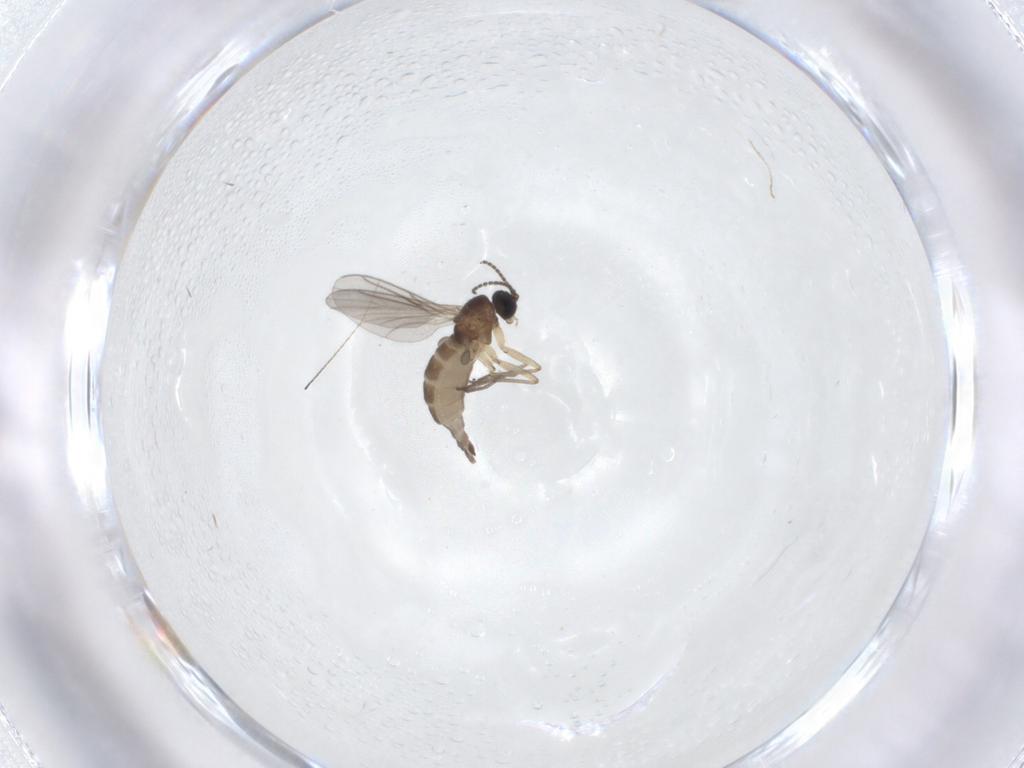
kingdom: Animalia
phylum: Arthropoda
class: Insecta
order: Diptera
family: Sciaridae
